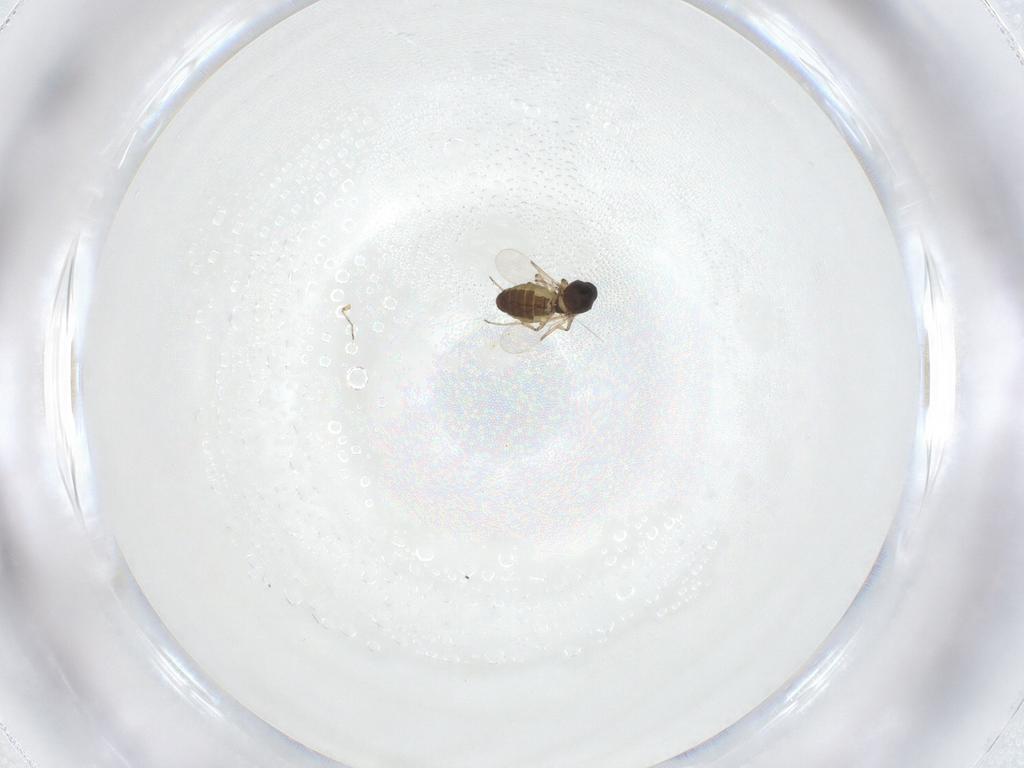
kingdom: Animalia
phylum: Arthropoda
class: Insecta
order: Diptera
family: Ceratopogonidae
